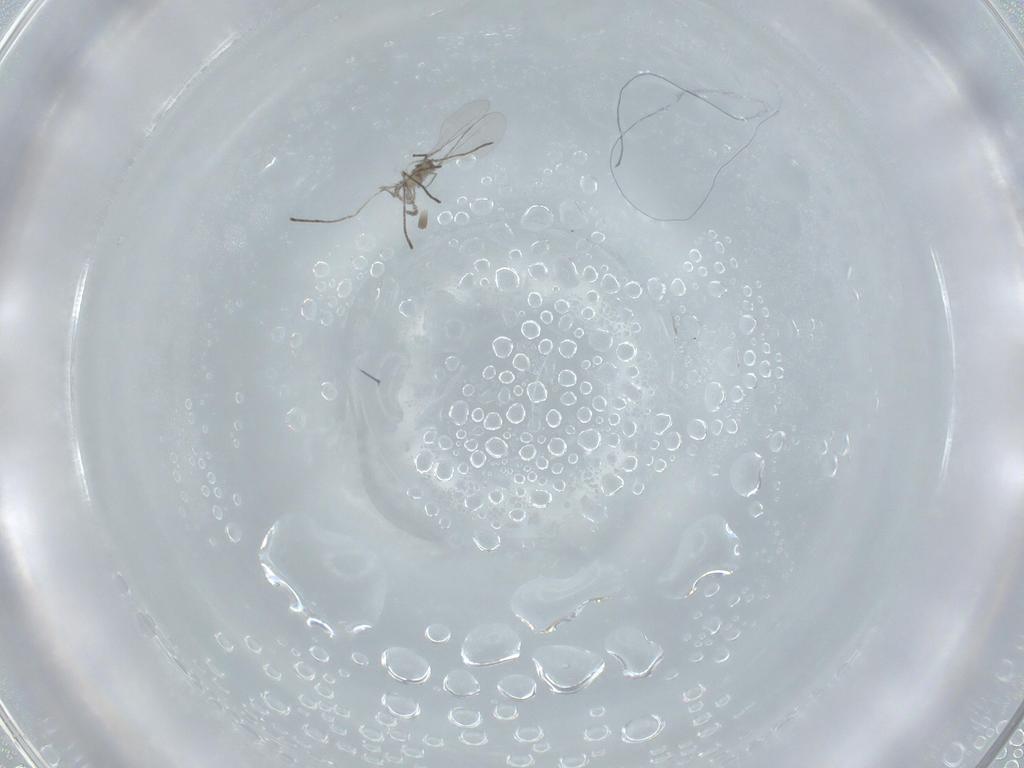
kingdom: Animalia
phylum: Arthropoda
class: Insecta
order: Diptera
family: Cecidomyiidae
